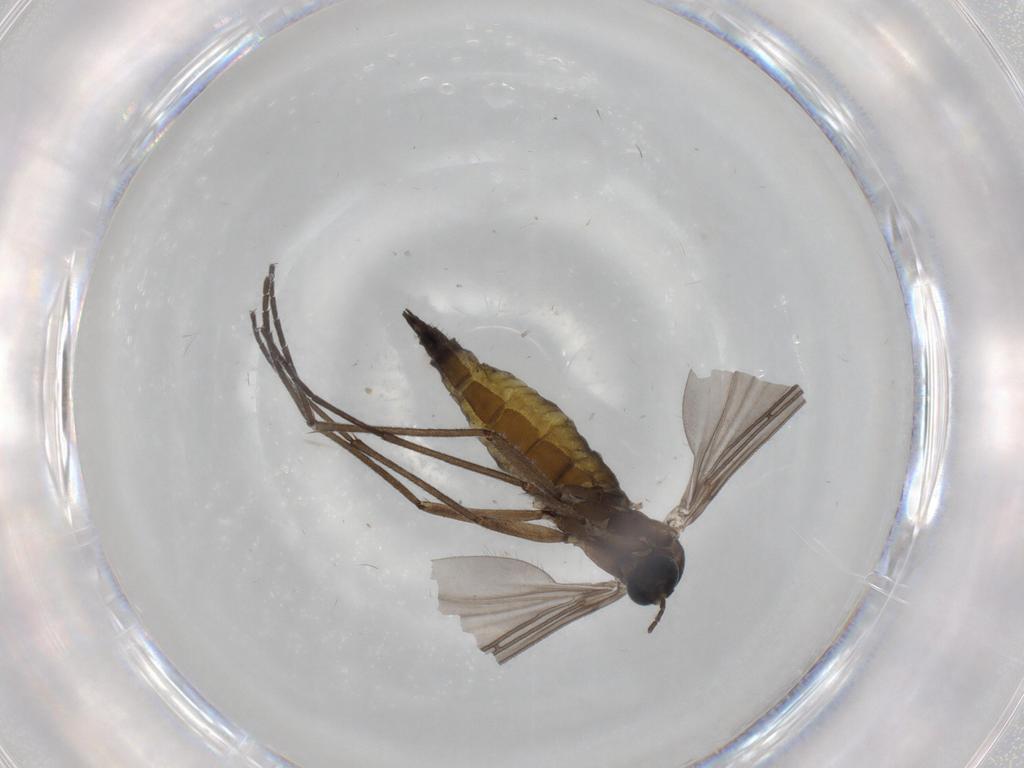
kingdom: Animalia
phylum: Arthropoda
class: Insecta
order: Diptera
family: Sciaridae
